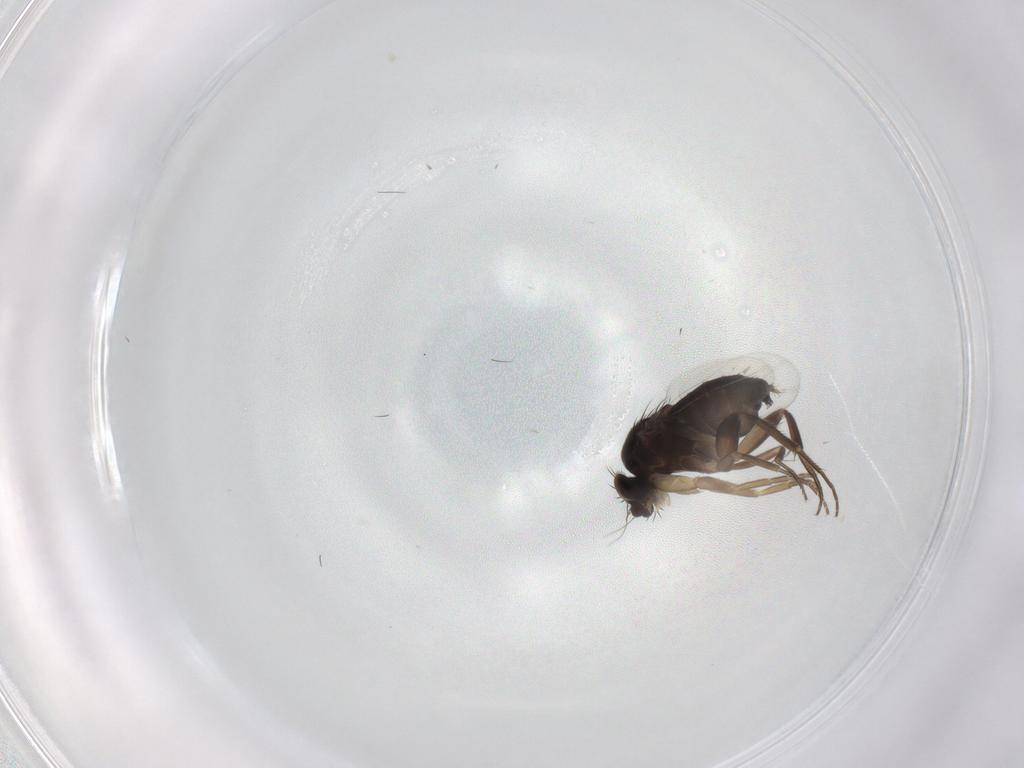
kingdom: Animalia
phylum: Arthropoda
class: Insecta
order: Diptera
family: Phoridae
